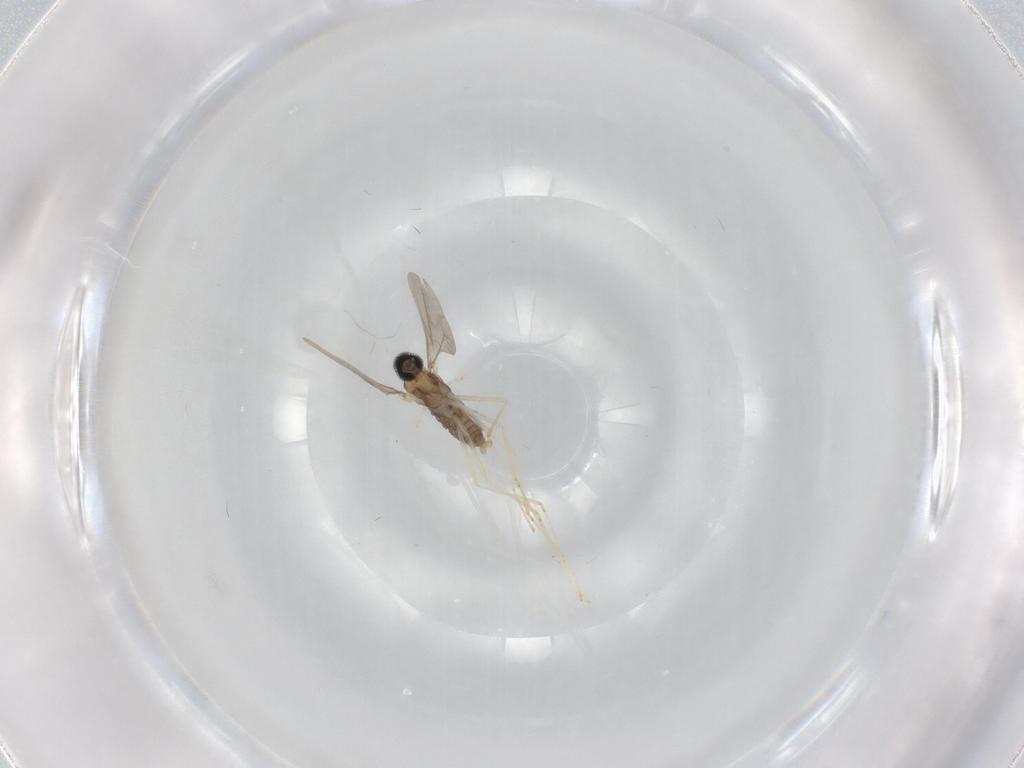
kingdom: Animalia
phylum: Arthropoda
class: Insecta
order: Diptera
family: Cecidomyiidae
